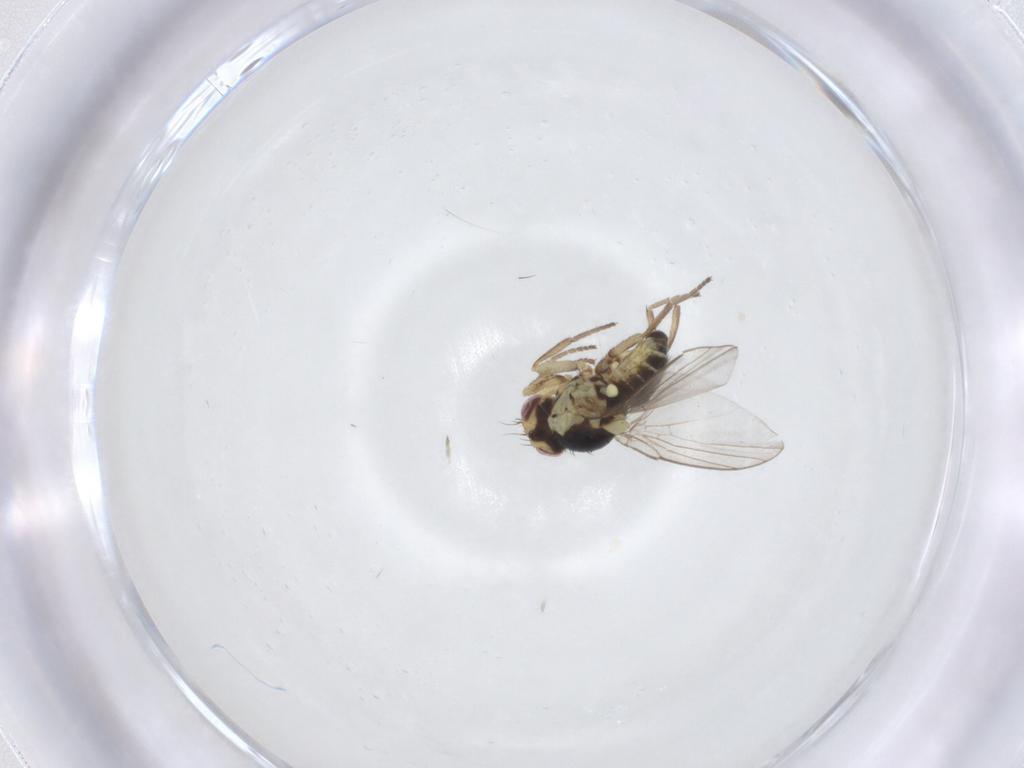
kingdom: Animalia
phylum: Arthropoda
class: Insecta
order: Diptera
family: Agromyzidae
